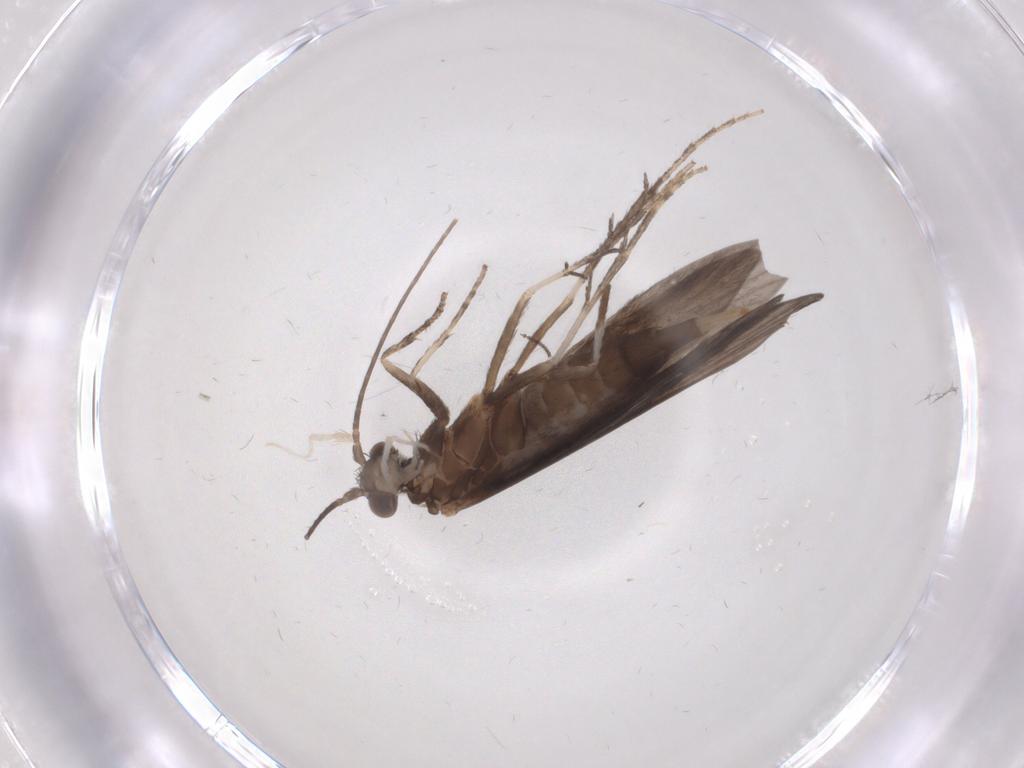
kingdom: Animalia
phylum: Arthropoda
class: Insecta
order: Trichoptera
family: Xiphocentronidae
